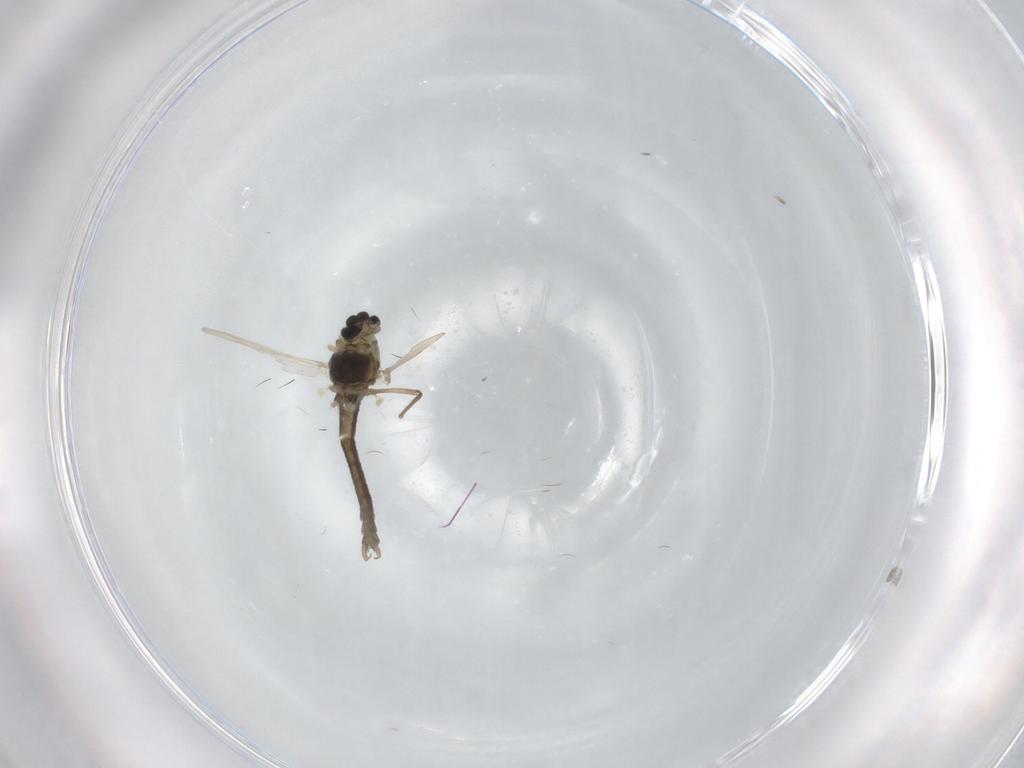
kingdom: Animalia
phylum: Arthropoda
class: Insecta
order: Diptera
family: Chironomidae
